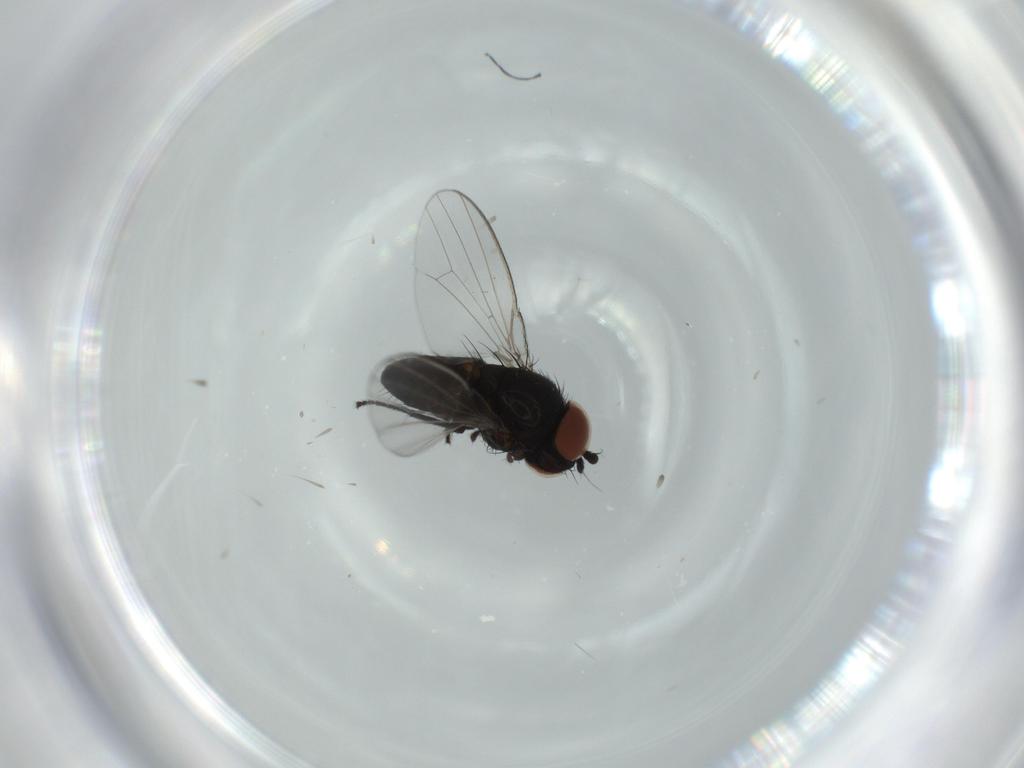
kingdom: Animalia
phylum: Arthropoda
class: Insecta
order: Diptera
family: Milichiidae
